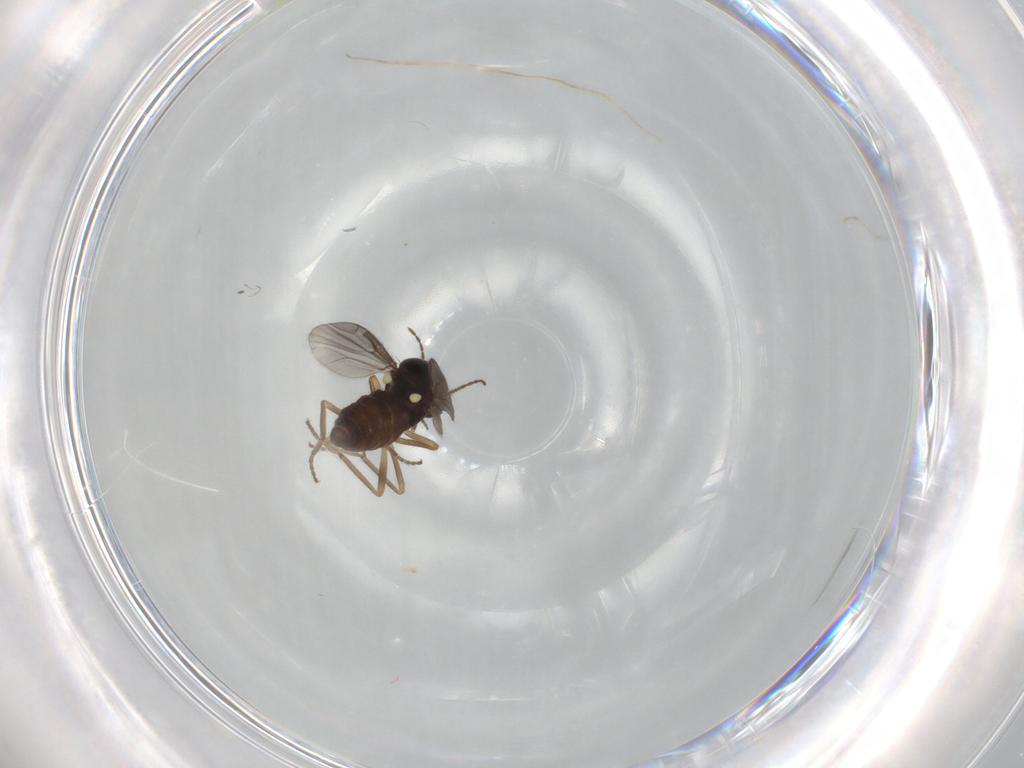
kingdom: Animalia
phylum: Arthropoda
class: Insecta
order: Diptera
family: Ceratopogonidae
